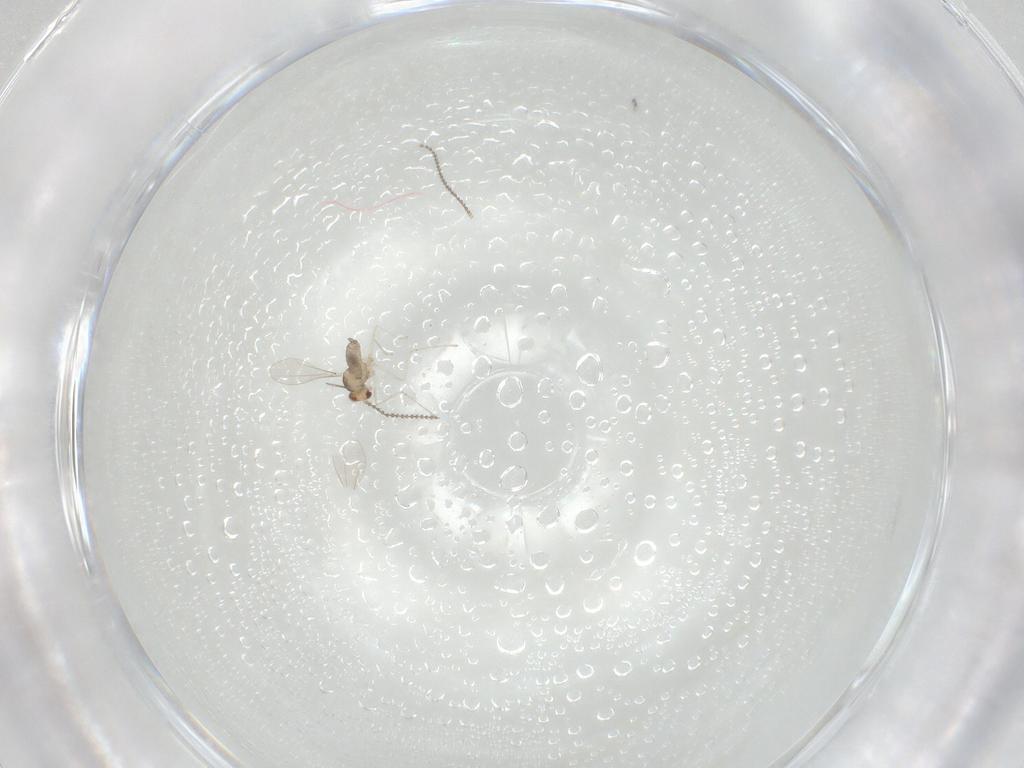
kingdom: Animalia
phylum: Arthropoda
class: Insecta
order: Diptera
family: Cecidomyiidae
